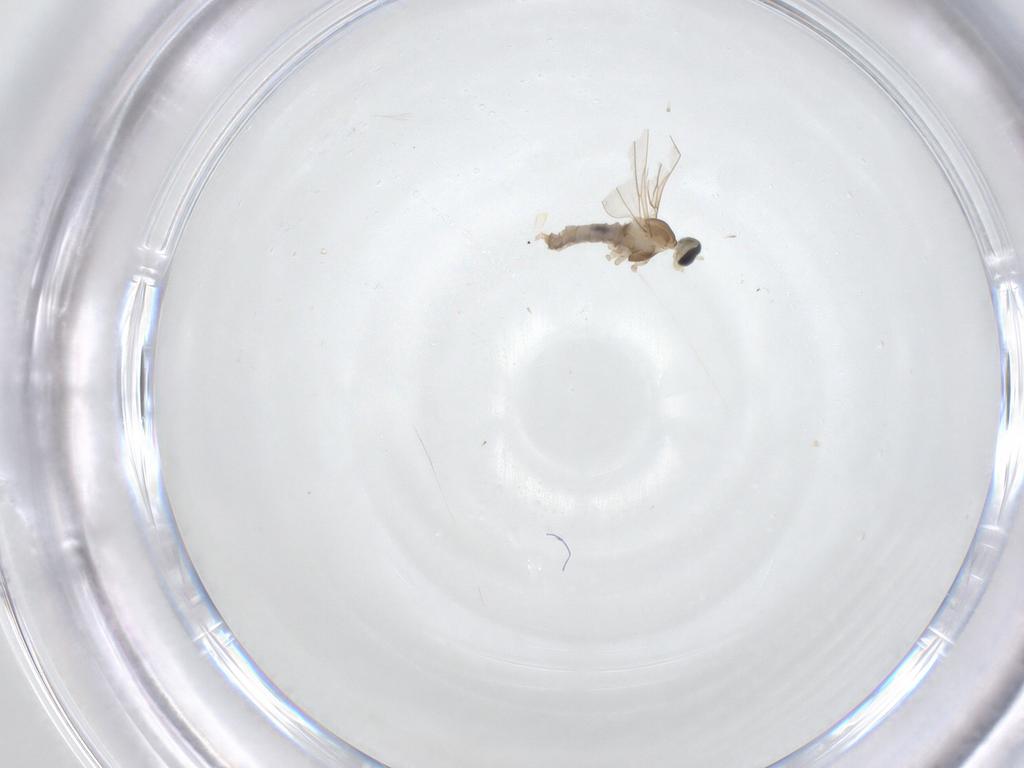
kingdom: Animalia
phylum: Arthropoda
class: Insecta
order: Diptera
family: Cecidomyiidae
